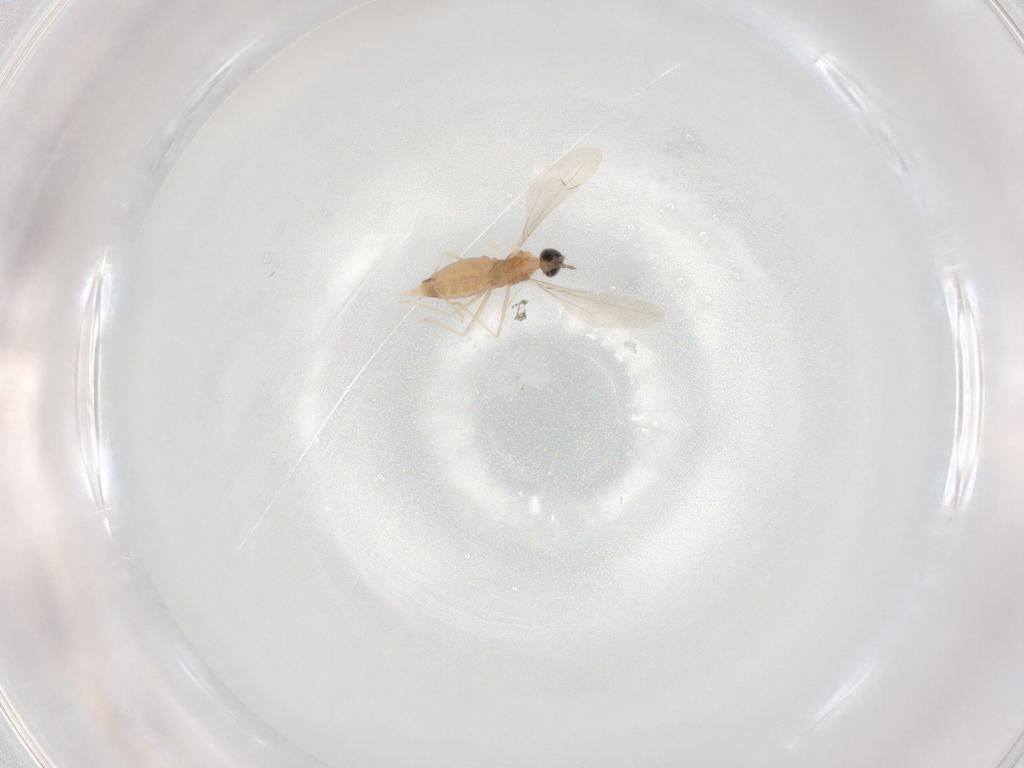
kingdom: Animalia
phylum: Arthropoda
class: Insecta
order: Diptera
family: Cecidomyiidae
